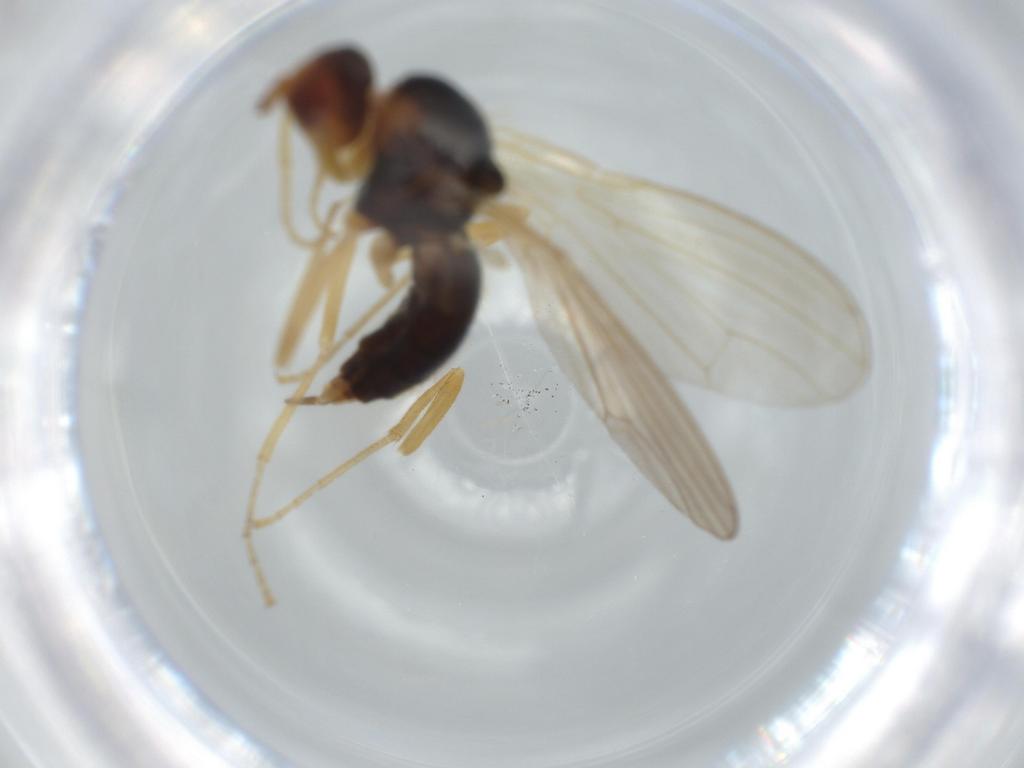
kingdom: Animalia
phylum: Arthropoda
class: Insecta
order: Diptera
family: Psilidae
